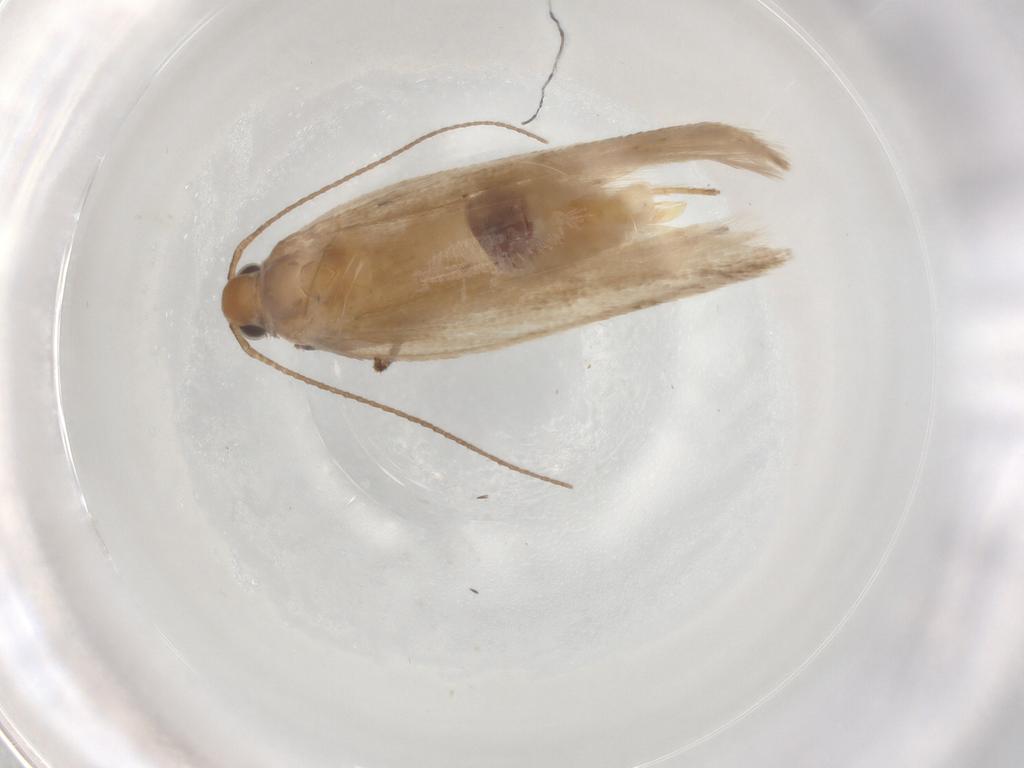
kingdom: Animalia
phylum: Arthropoda
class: Insecta
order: Lepidoptera
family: Gelechiidae
